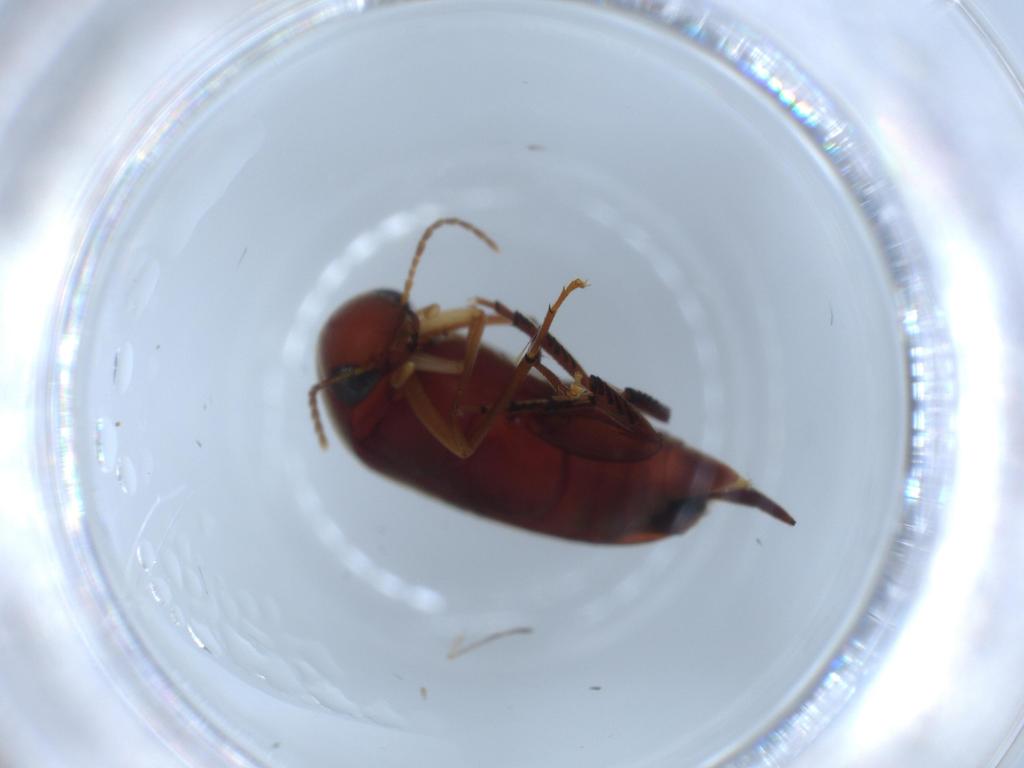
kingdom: Animalia
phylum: Arthropoda
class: Insecta
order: Coleoptera
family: Chrysomelidae
